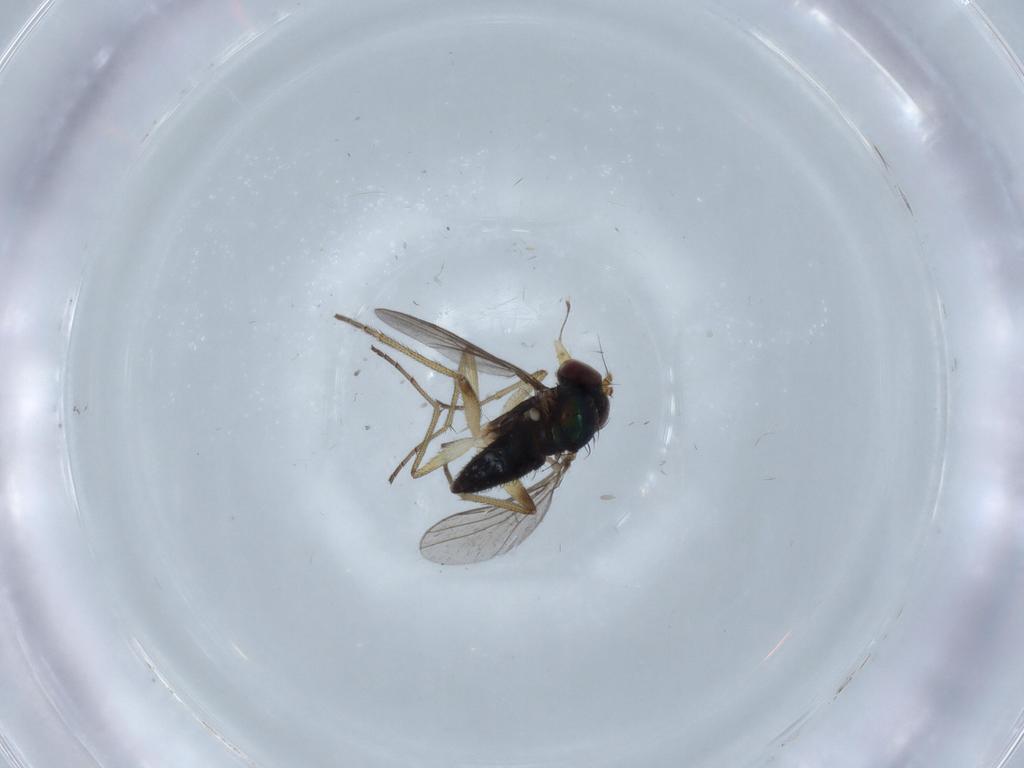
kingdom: Animalia
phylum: Arthropoda
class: Insecta
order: Diptera
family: Dolichopodidae
